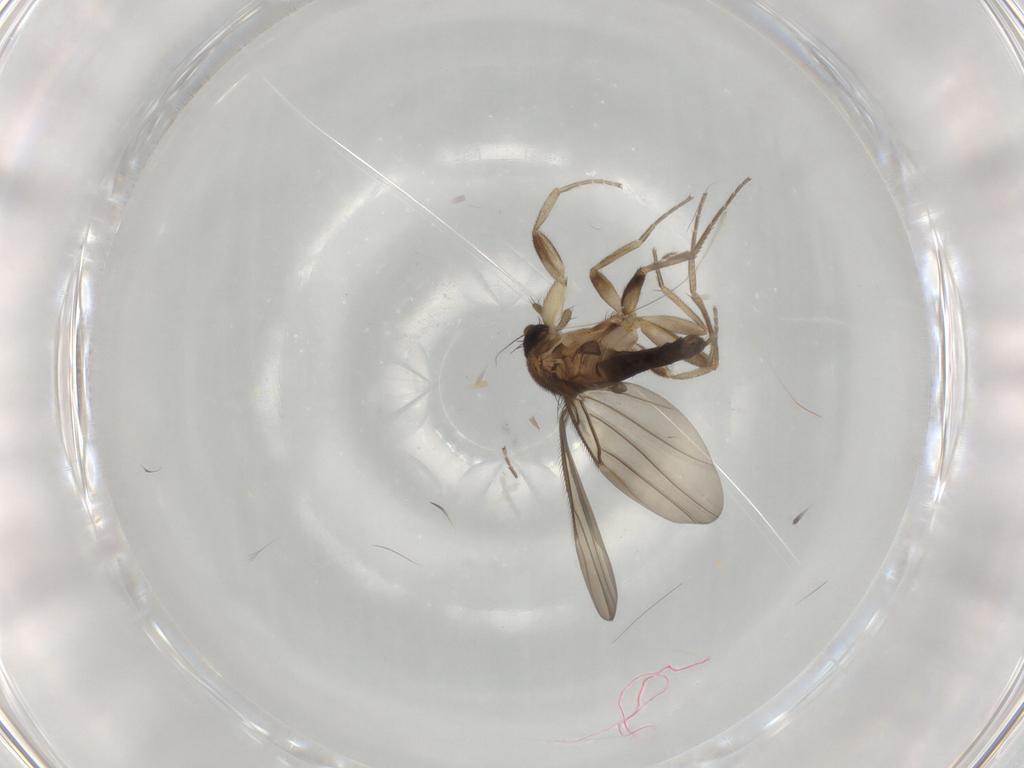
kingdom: Animalia
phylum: Arthropoda
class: Insecta
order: Diptera
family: Phoridae
